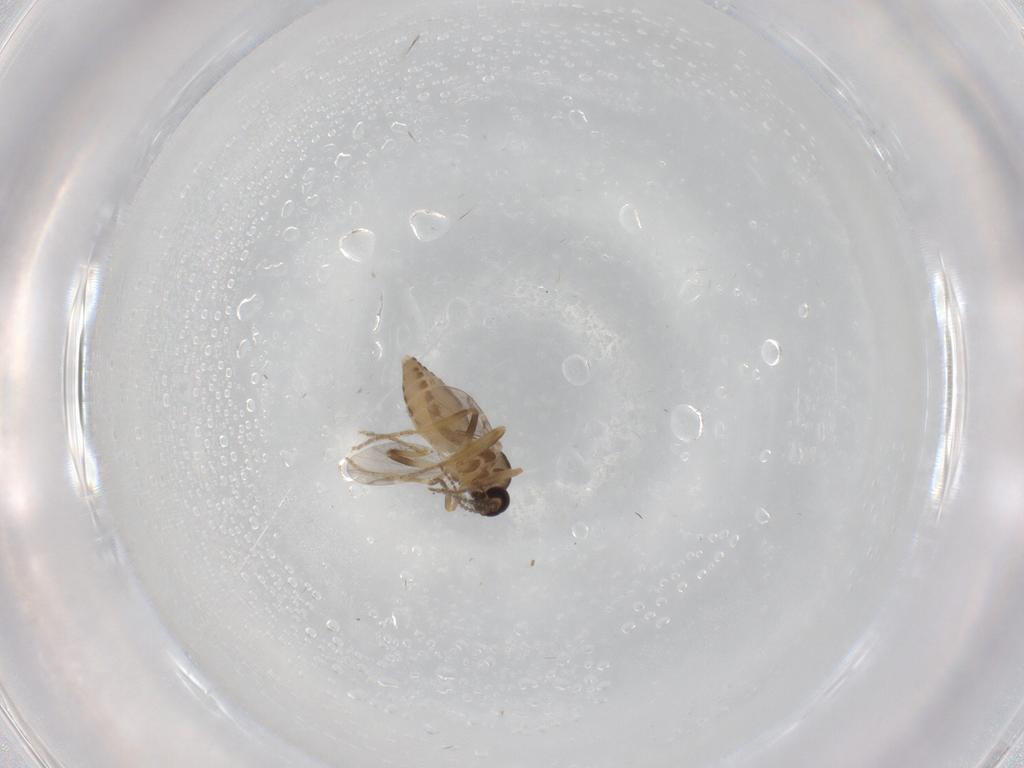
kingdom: Animalia
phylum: Arthropoda
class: Insecta
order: Diptera
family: Ceratopogonidae
